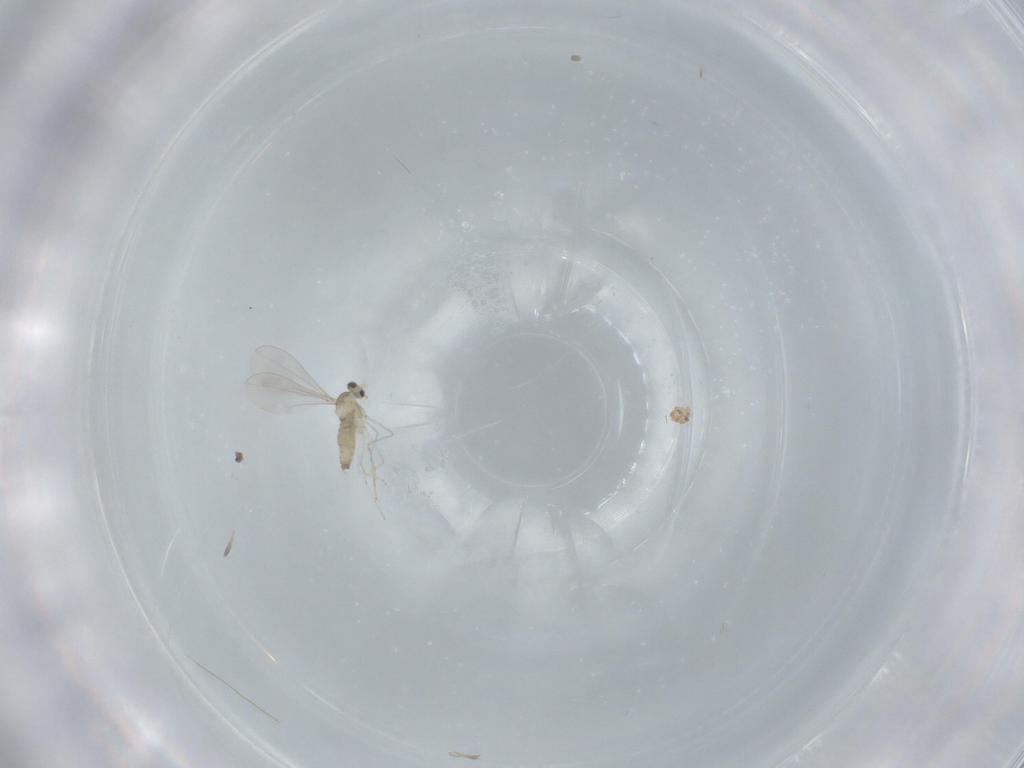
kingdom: Animalia
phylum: Arthropoda
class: Insecta
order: Diptera
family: Cecidomyiidae
